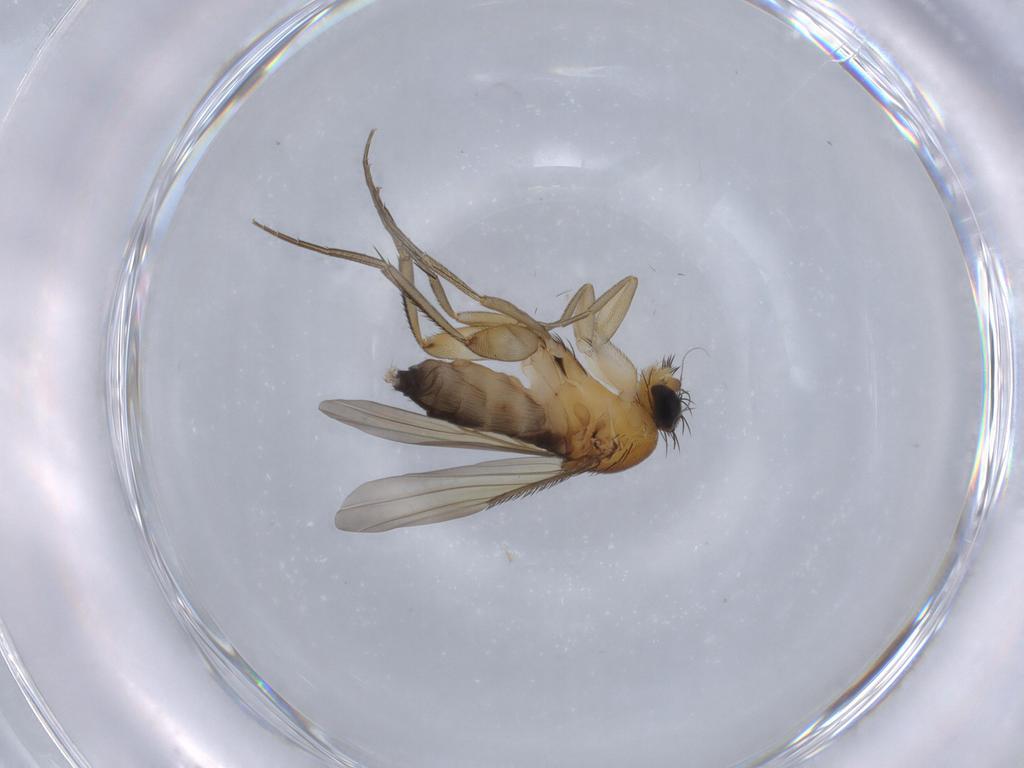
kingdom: Animalia
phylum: Arthropoda
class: Insecta
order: Diptera
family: Phoridae
